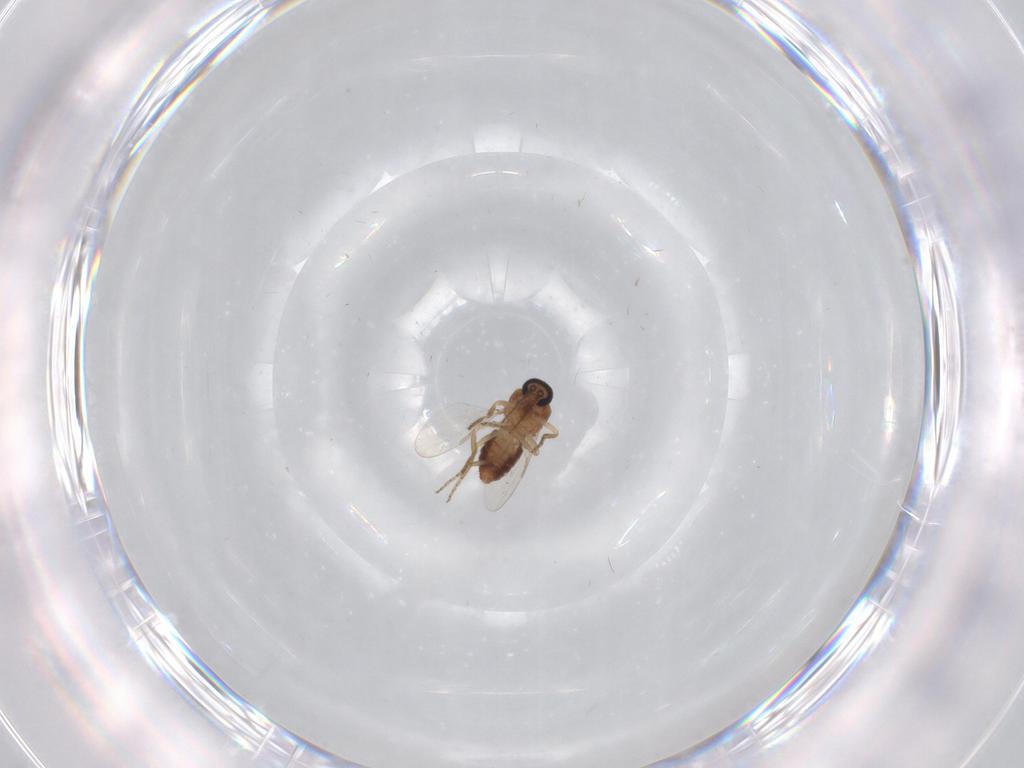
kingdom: Animalia
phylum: Arthropoda
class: Insecta
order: Diptera
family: Ceratopogonidae
